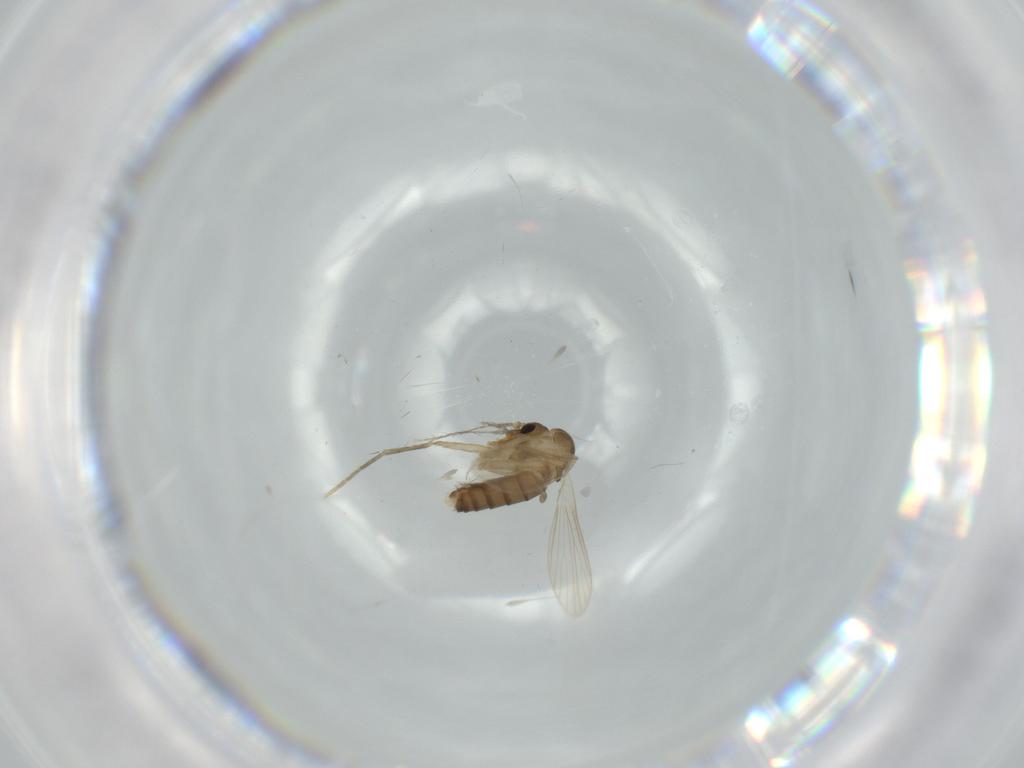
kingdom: Animalia
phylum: Arthropoda
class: Insecta
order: Diptera
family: Psychodidae
